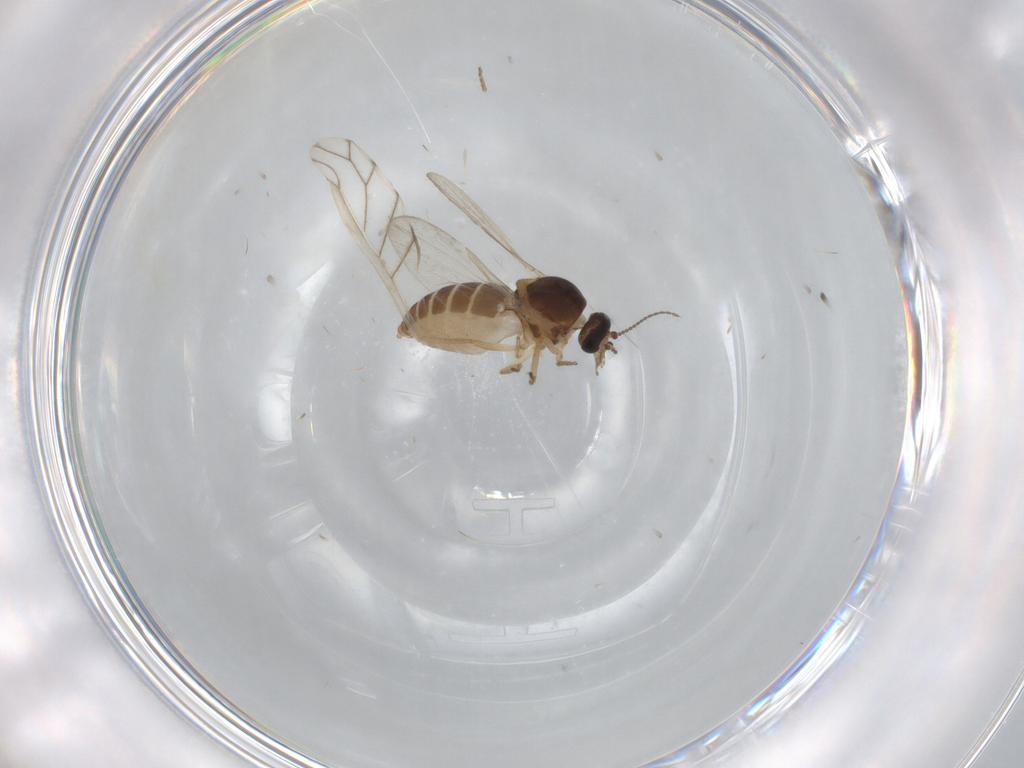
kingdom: Animalia
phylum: Arthropoda
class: Insecta
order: Diptera
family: Ceratopogonidae
